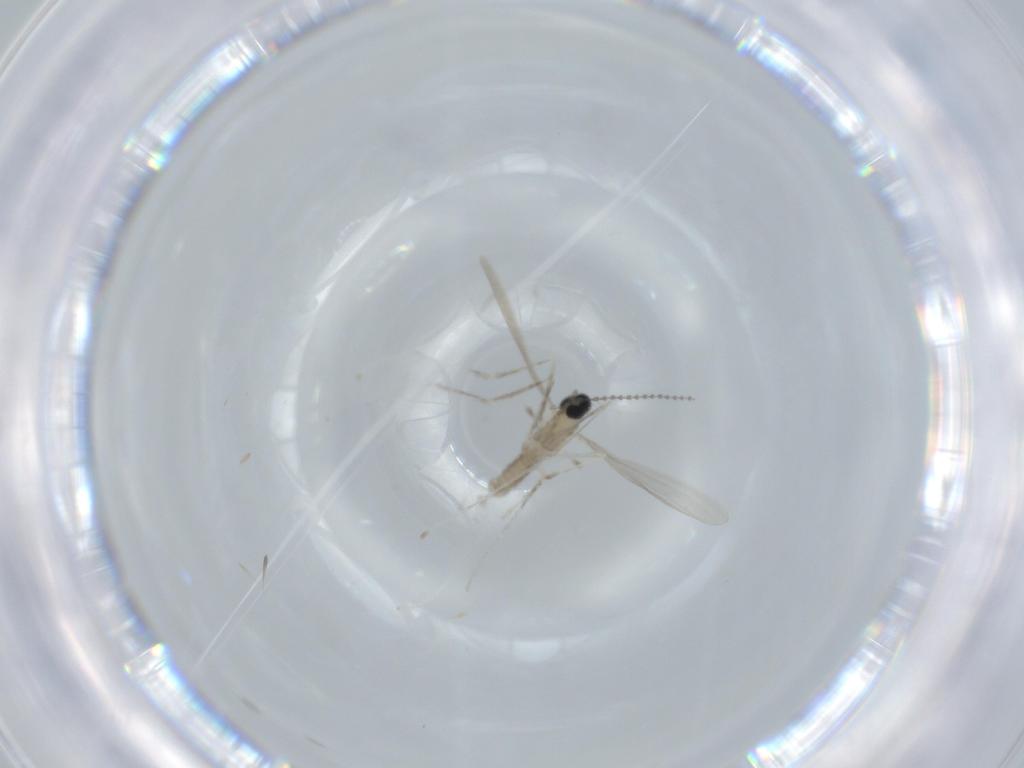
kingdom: Animalia
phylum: Arthropoda
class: Insecta
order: Diptera
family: Cecidomyiidae
